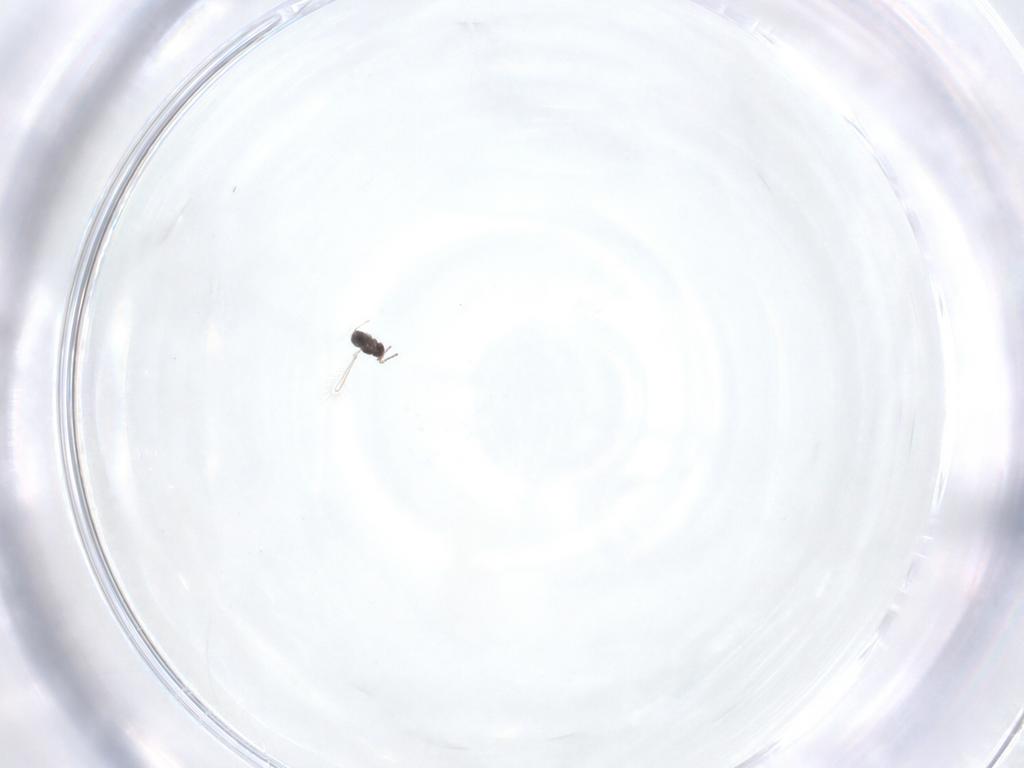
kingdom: Animalia
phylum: Arthropoda
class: Insecta
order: Hymenoptera
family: Mymaridae
